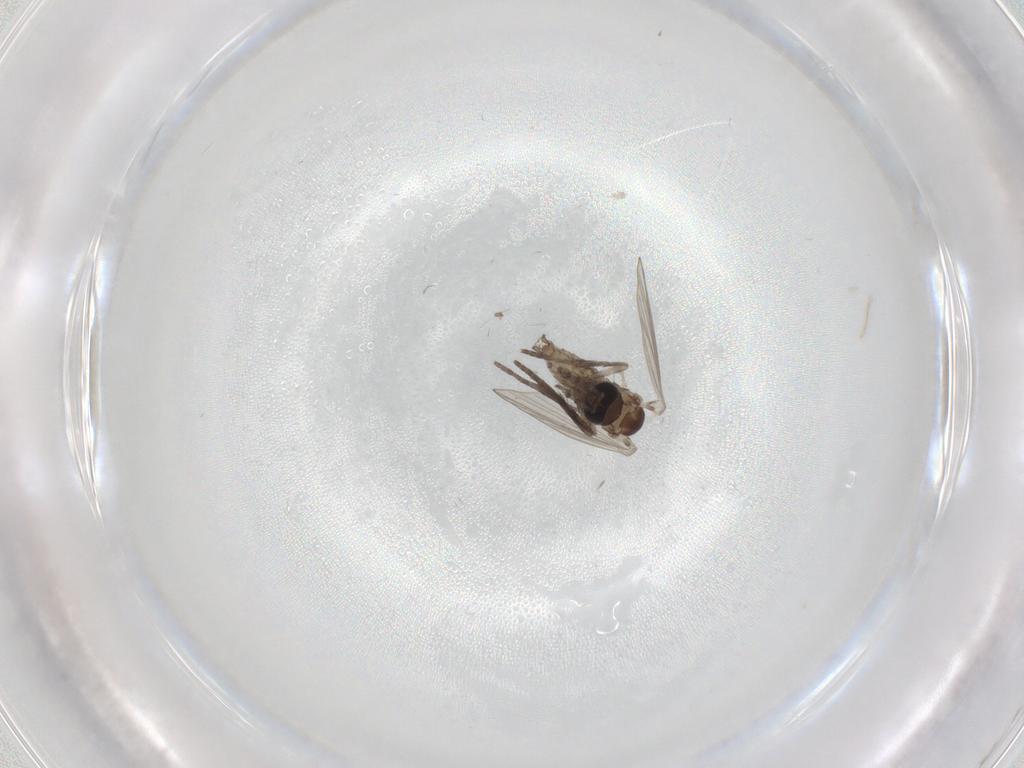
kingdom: Animalia
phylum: Arthropoda
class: Insecta
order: Diptera
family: Psychodidae
